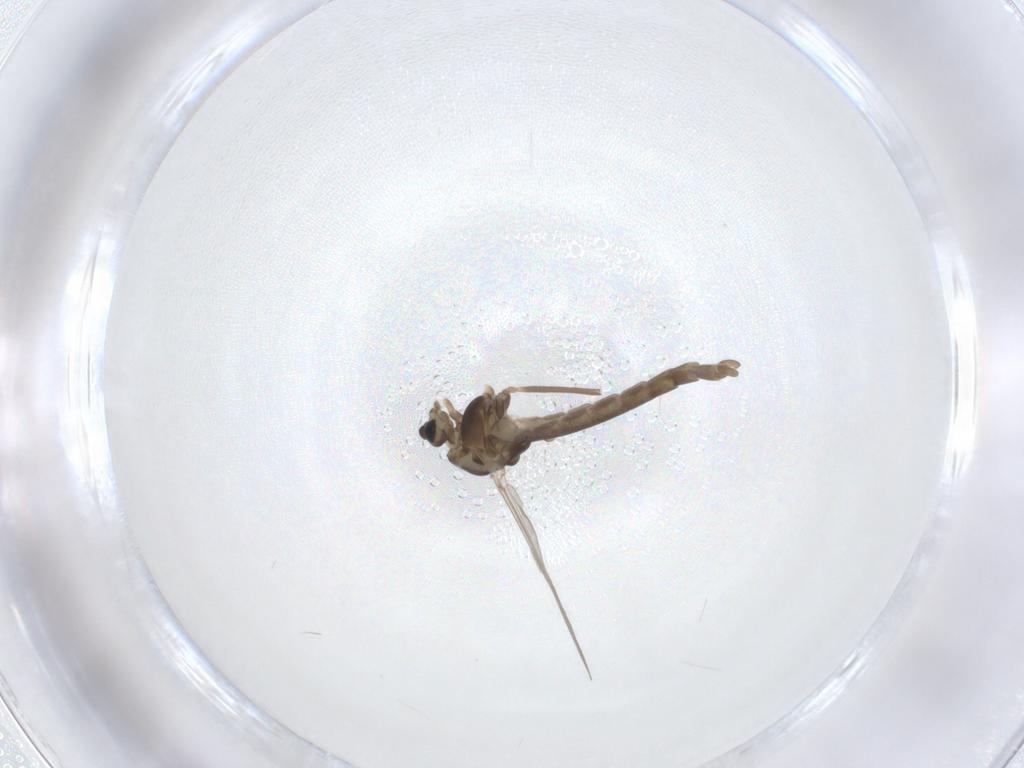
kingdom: Animalia
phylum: Arthropoda
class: Insecta
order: Diptera
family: Chironomidae
